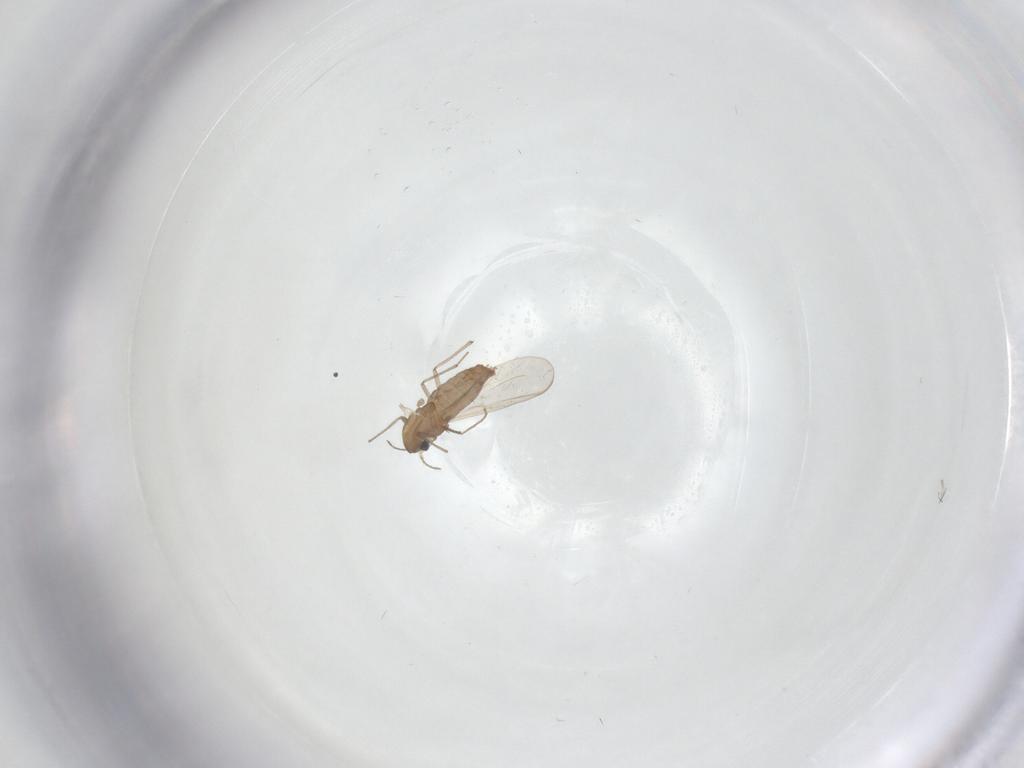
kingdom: Animalia
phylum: Arthropoda
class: Insecta
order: Diptera
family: Chironomidae
